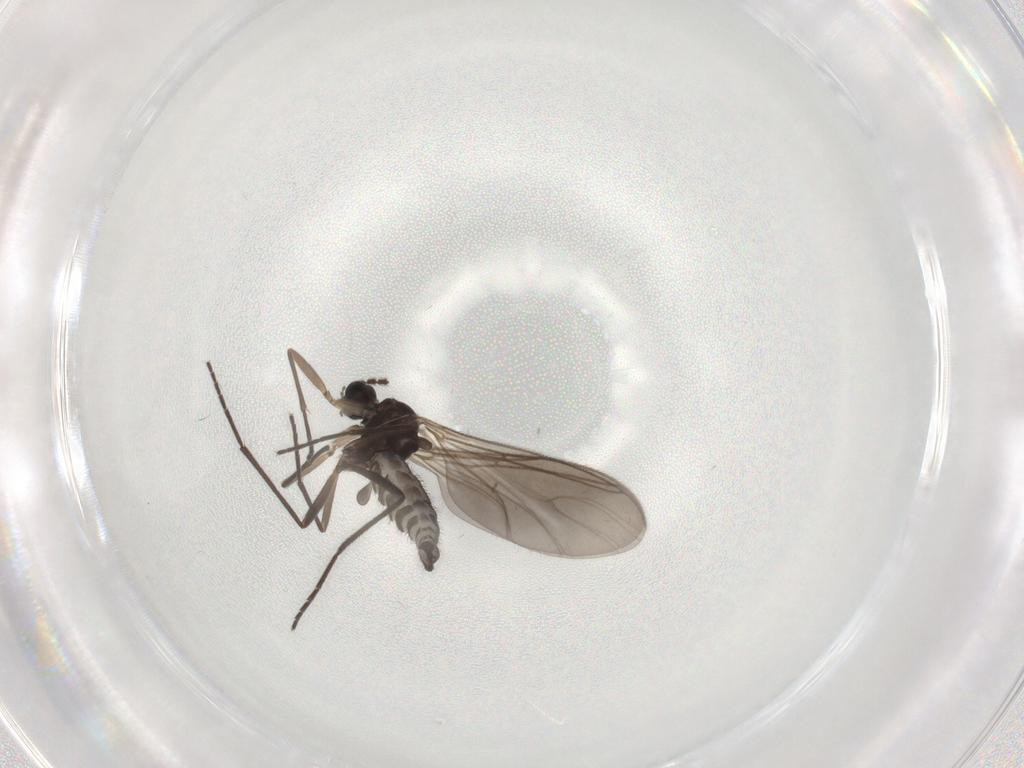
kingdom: Animalia
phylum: Arthropoda
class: Insecta
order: Diptera
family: Sciaridae
